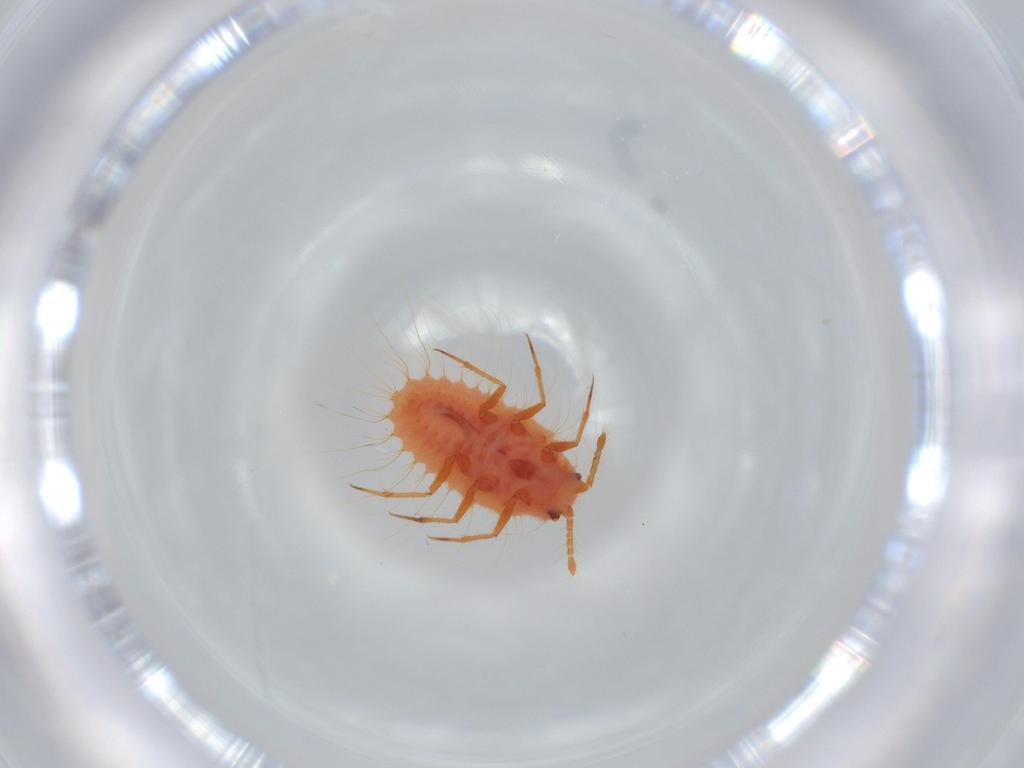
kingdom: Animalia
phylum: Arthropoda
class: Insecta
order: Hemiptera
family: Coccoidea_incertae_sedis
